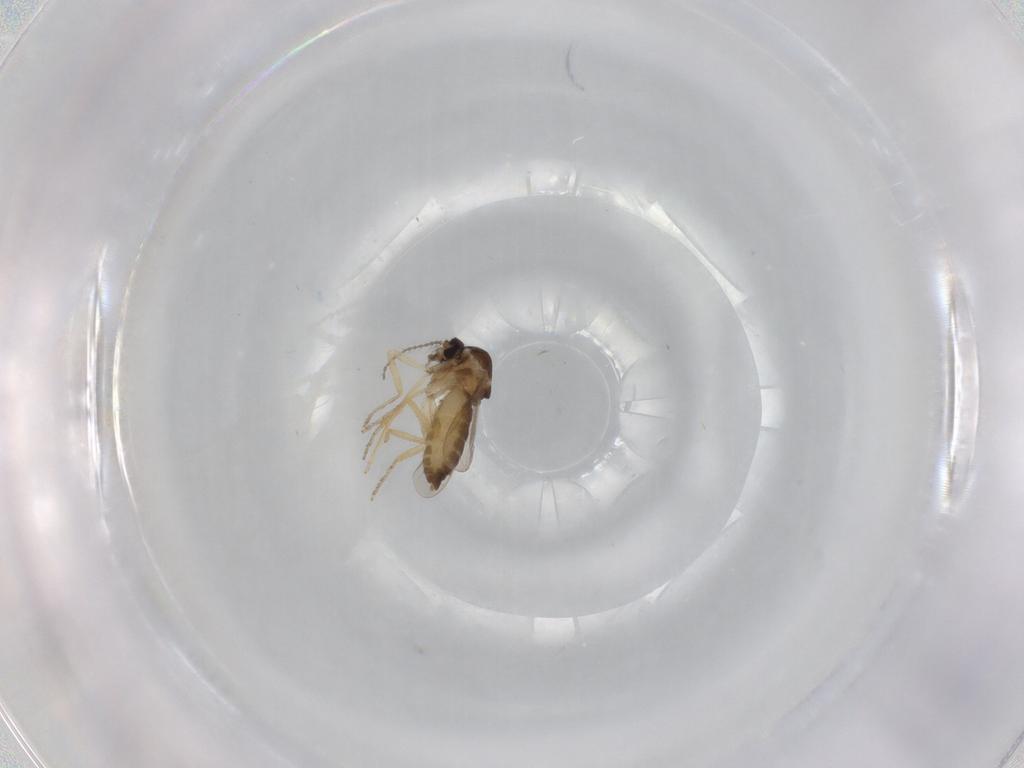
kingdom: Animalia
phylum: Arthropoda
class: Insecta
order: Diptera
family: Ceratopogonidae
